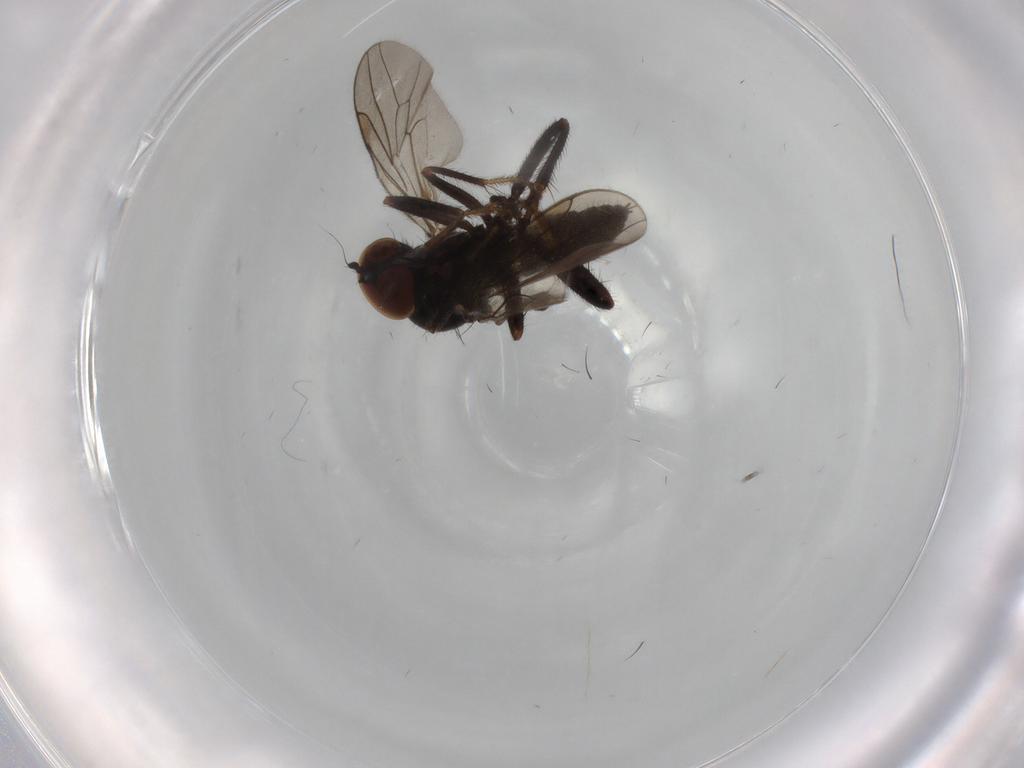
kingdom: Animalia
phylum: Arthropoda
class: Insecta
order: Diptera
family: Hybotidae
